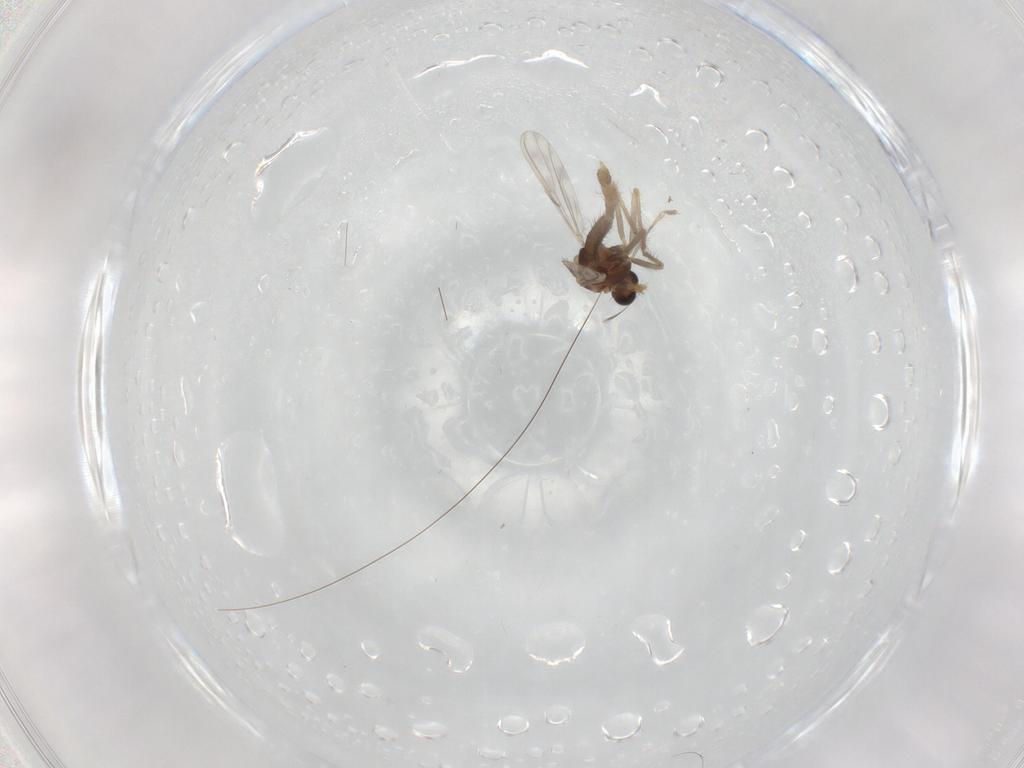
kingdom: Animalia
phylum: Arthropoda
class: Insecta
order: Diptera
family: Chironomidae
